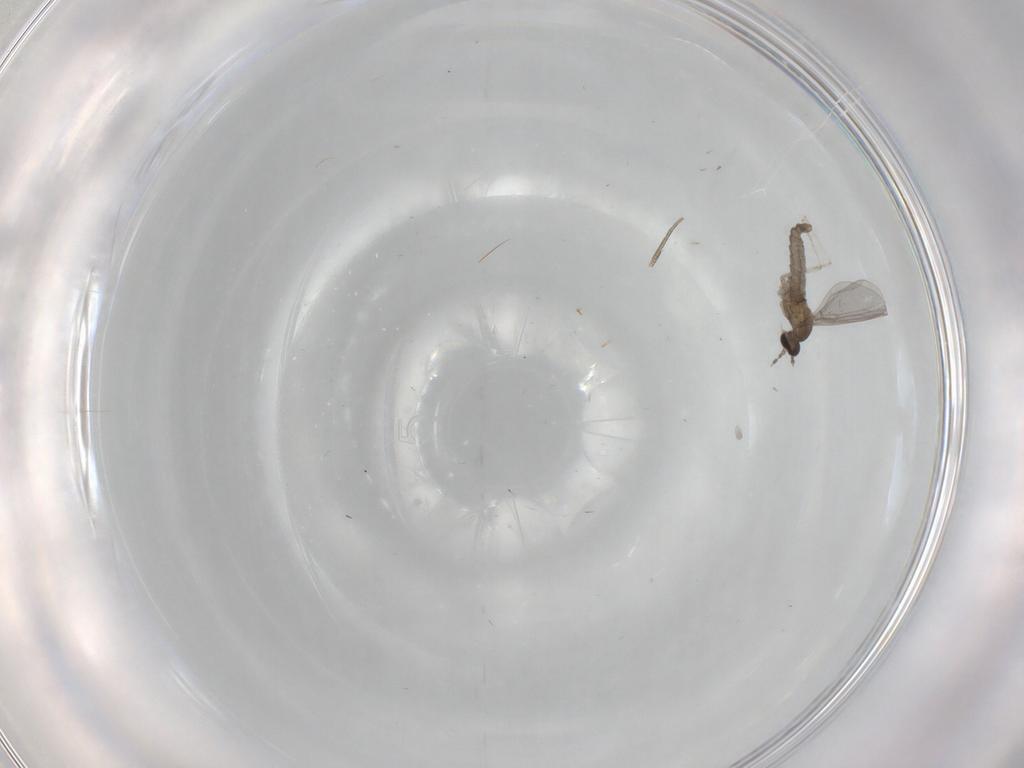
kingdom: Animalia
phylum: Arthropoda
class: Insecta
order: Diptera
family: Cecidomyiidae
